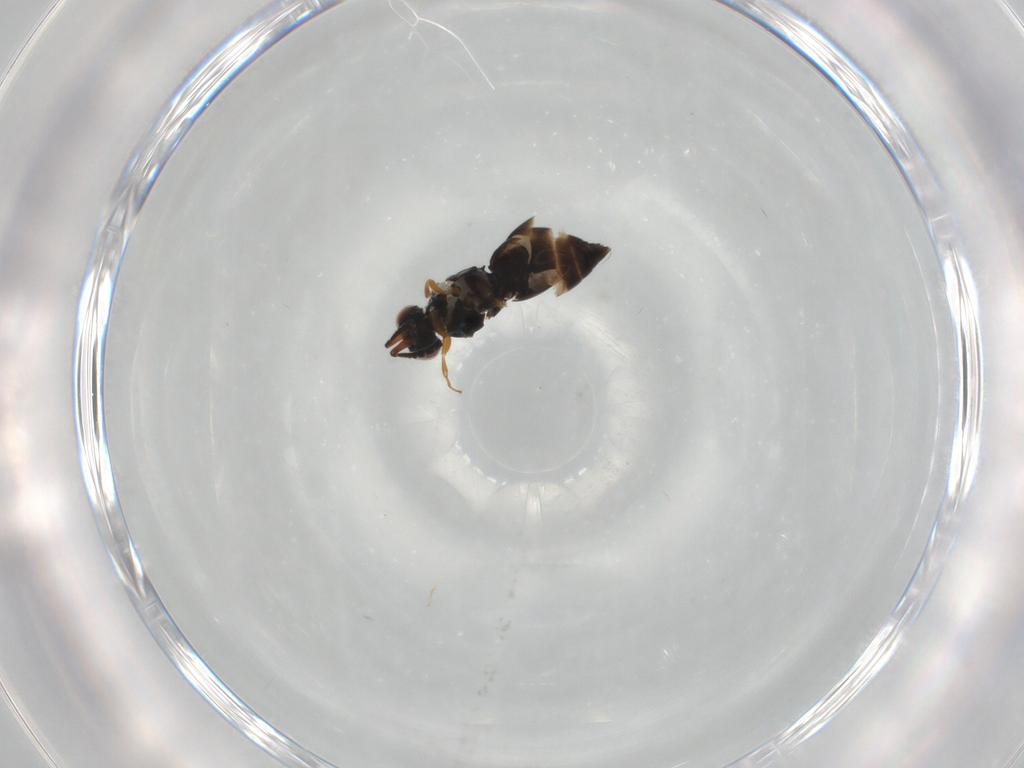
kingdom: Animalia
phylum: Arthropoda
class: Insecta
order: Hymenoptera
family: Ceraphronidae
